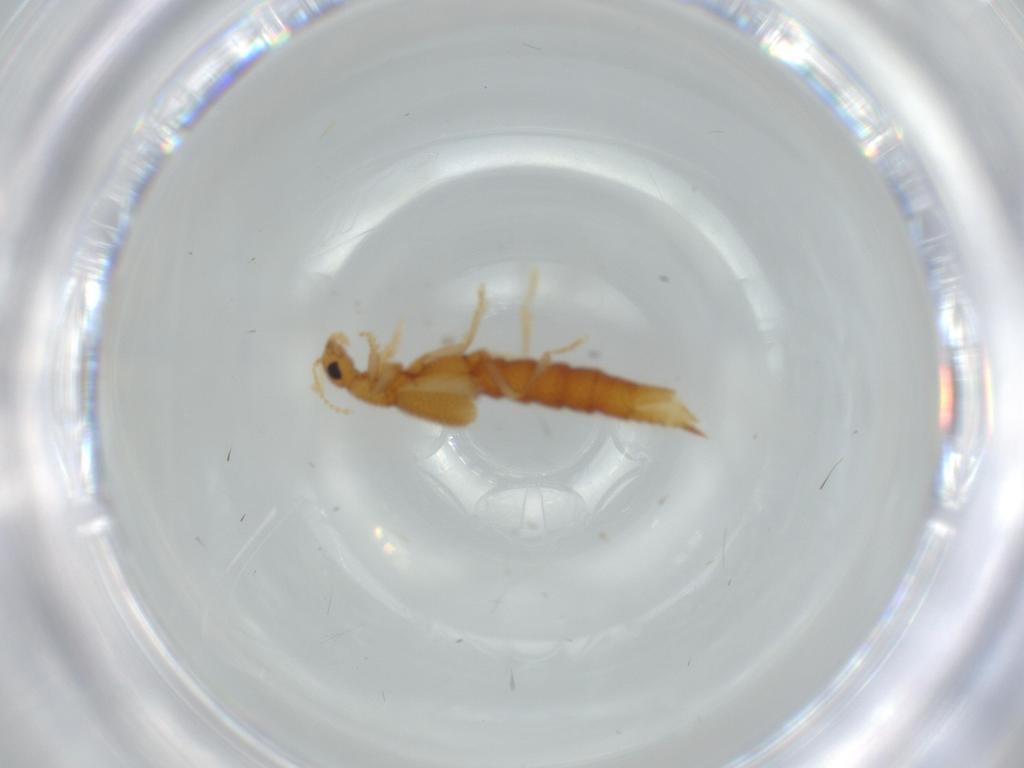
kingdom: Animalia
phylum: Arthropoda
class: Insecta
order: Coleoptera
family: Staphylinidae
